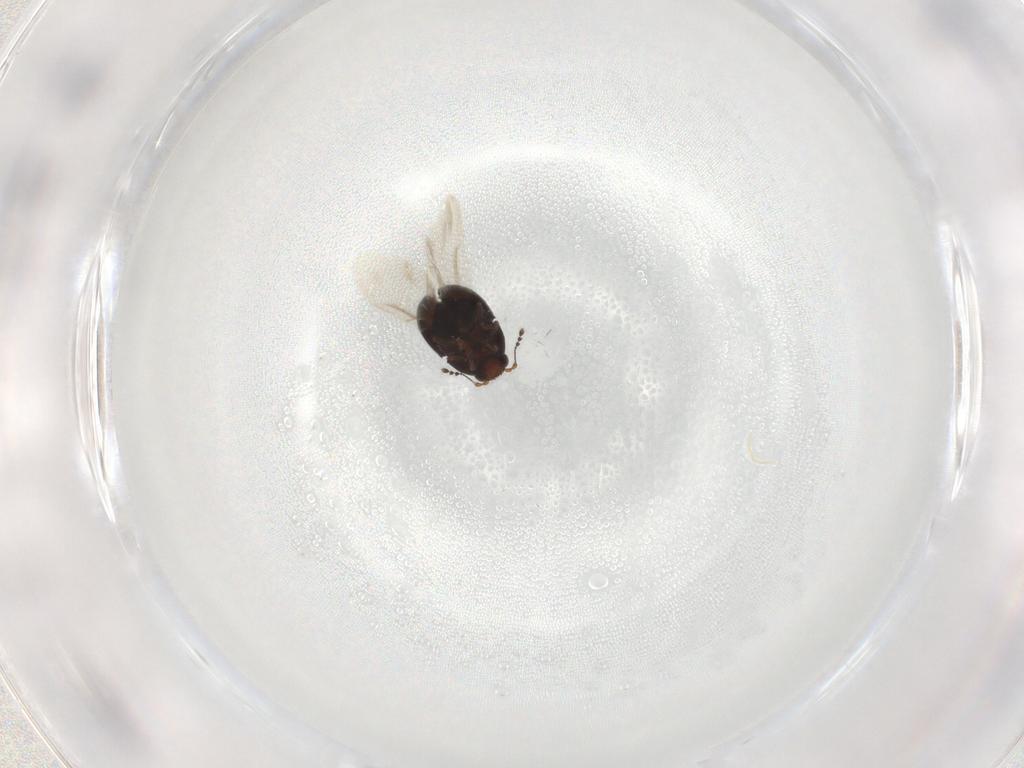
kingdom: Animalia
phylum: Arthropoda
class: Insecta
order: Coleoptera
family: Anthribidae
